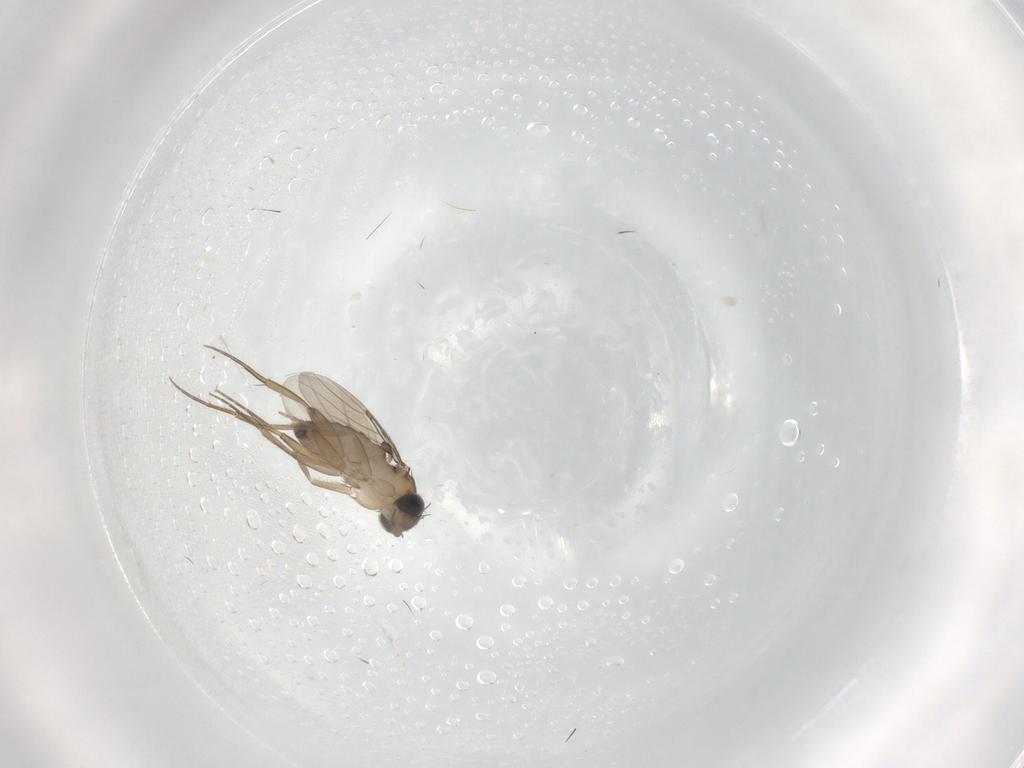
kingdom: Animalia
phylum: Arthropoda
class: Insecta
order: Diptera
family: Phoridae
